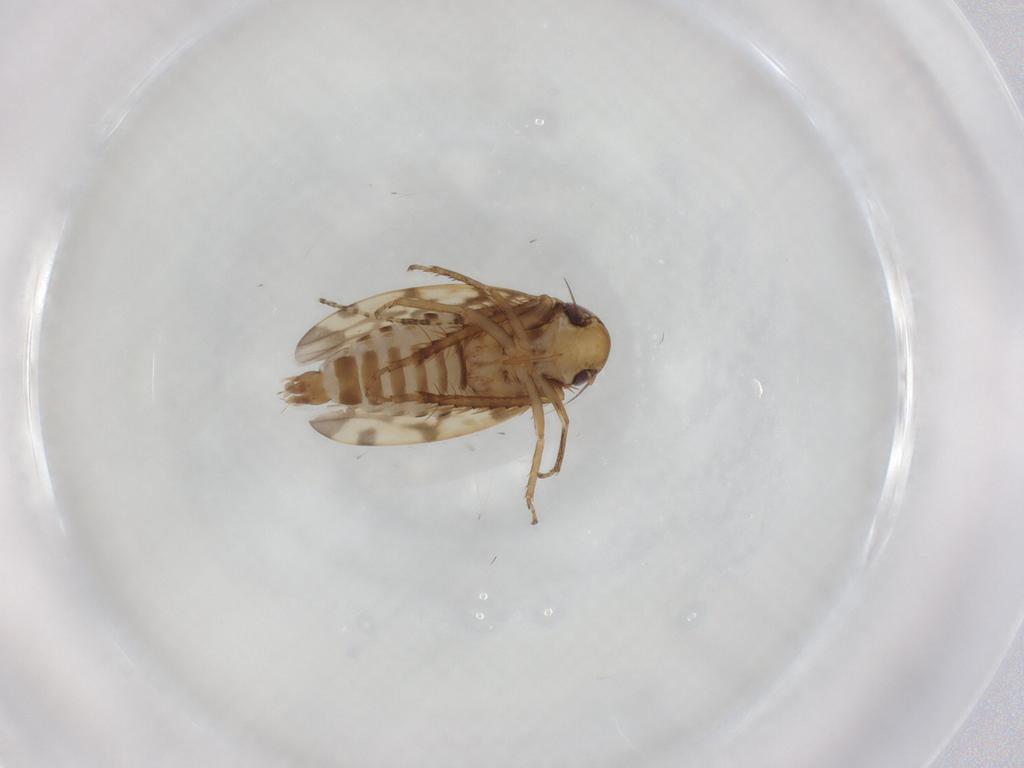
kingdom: Animalia
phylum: Arthropoda
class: Insecta
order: Hemiptera
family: Cicadellidae
